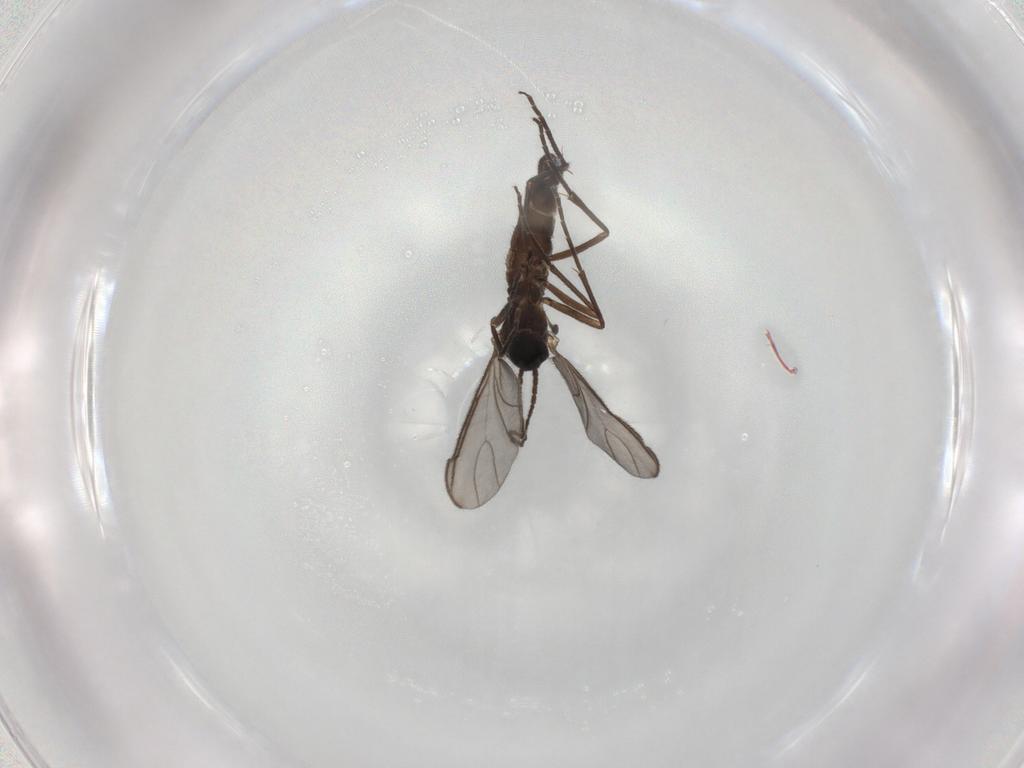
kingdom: Animalia
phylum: Arthropoda
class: Insecta
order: Diptera
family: Sciaridae
